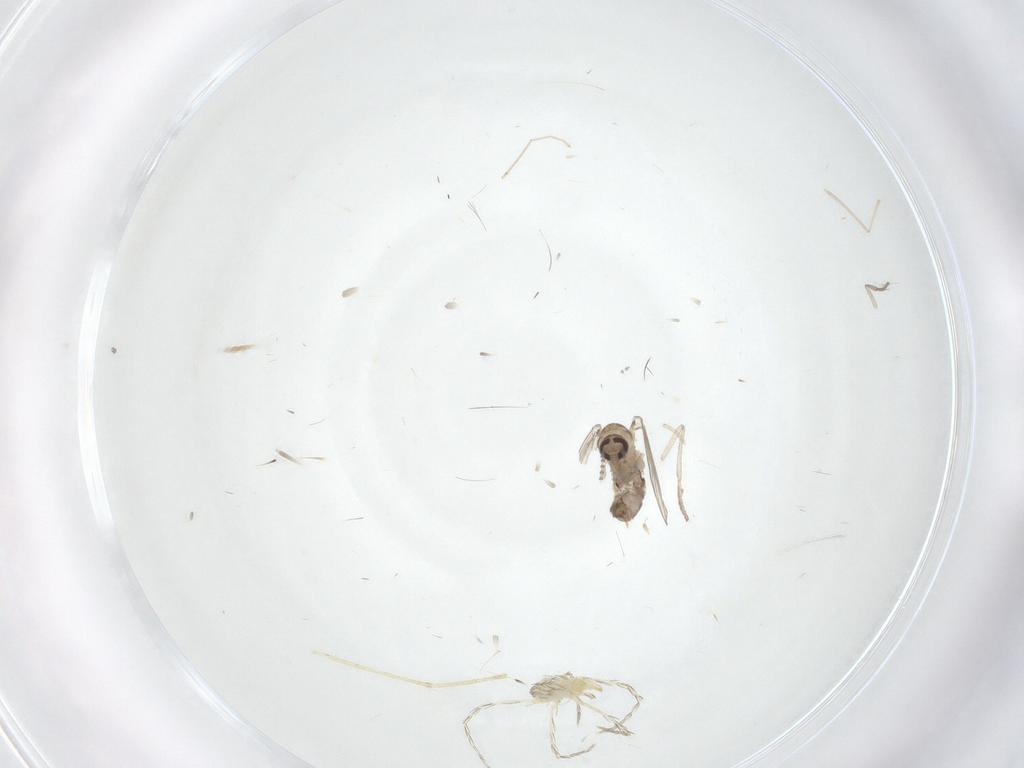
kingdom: Animalia
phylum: Arthropoda
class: Insecta
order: Diptera
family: Psychodidae
